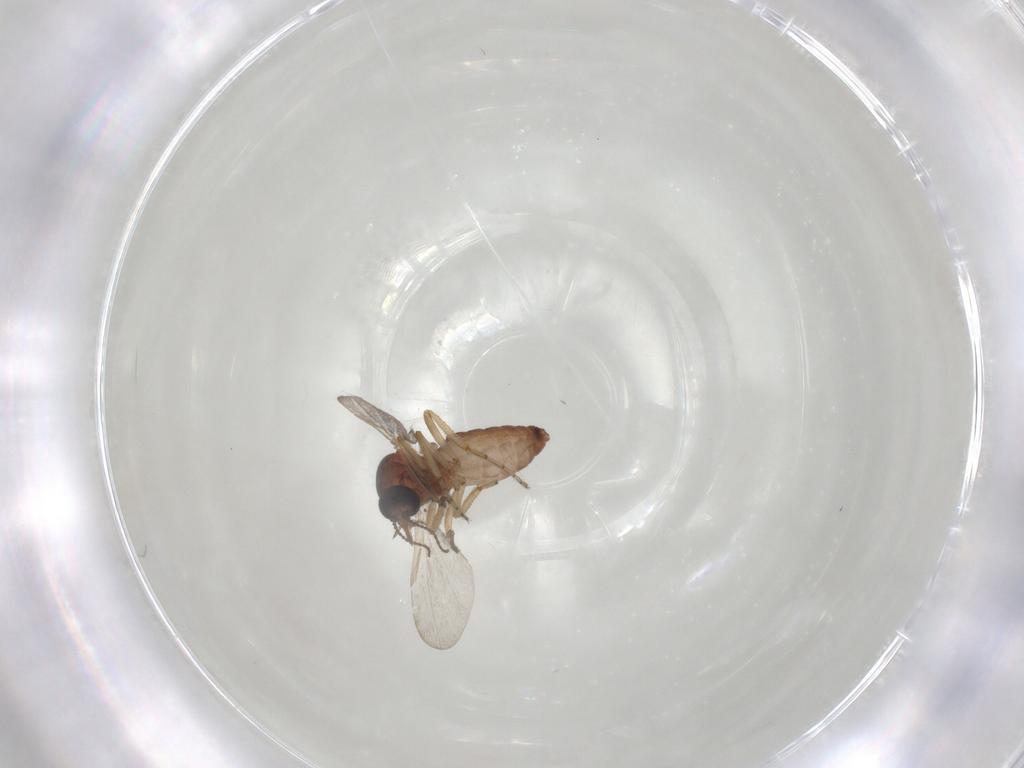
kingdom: Animalia
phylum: Arthropoda
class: Insecta
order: Diptera
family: Ceratopogonidae
